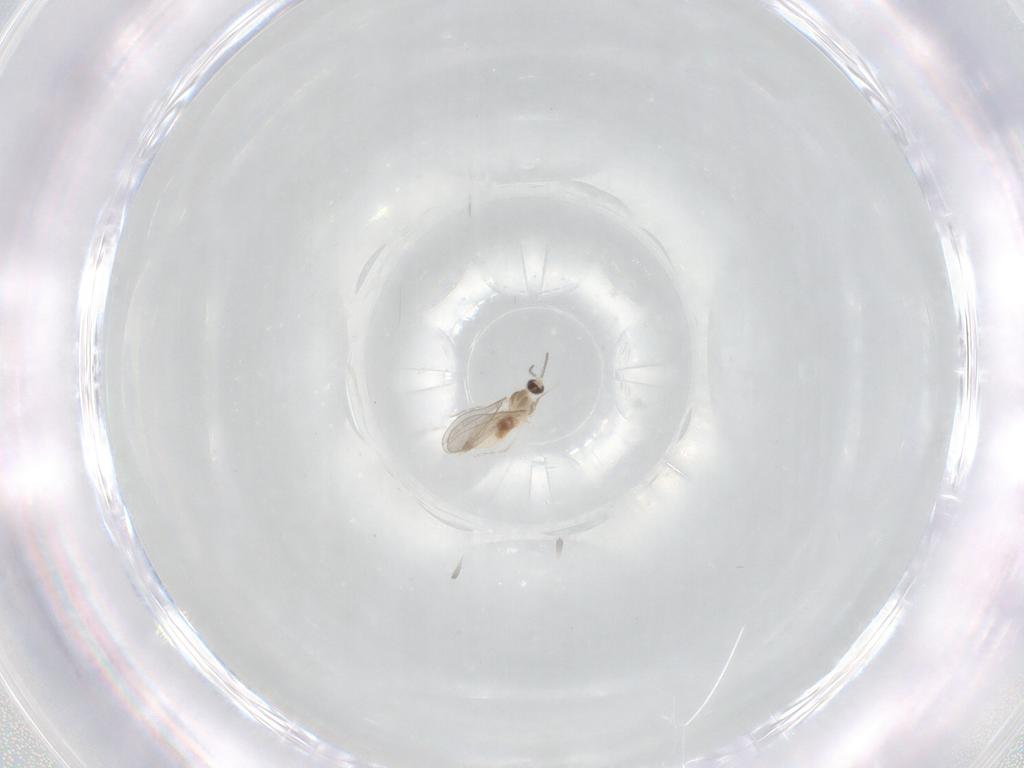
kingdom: Animalia
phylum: Arthropoda
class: Insecta
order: Diptera
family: Cecidomyiidae
